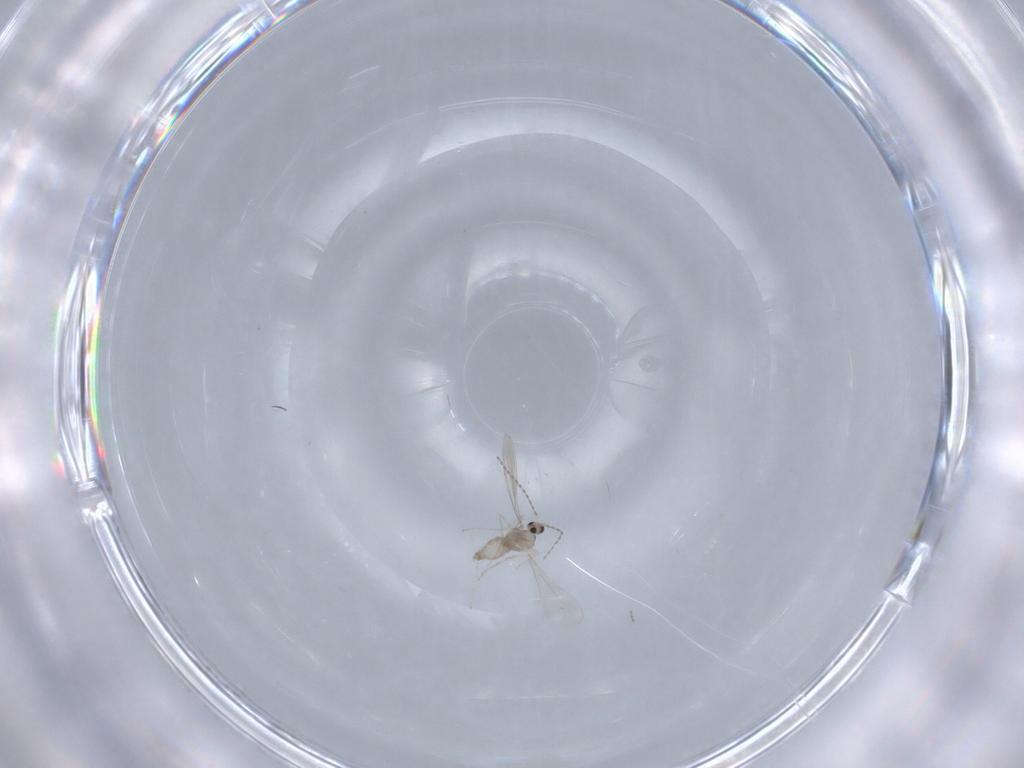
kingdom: Animalia
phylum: Arthropoda
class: Insecta
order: Diptera
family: Cecidomyiidae
